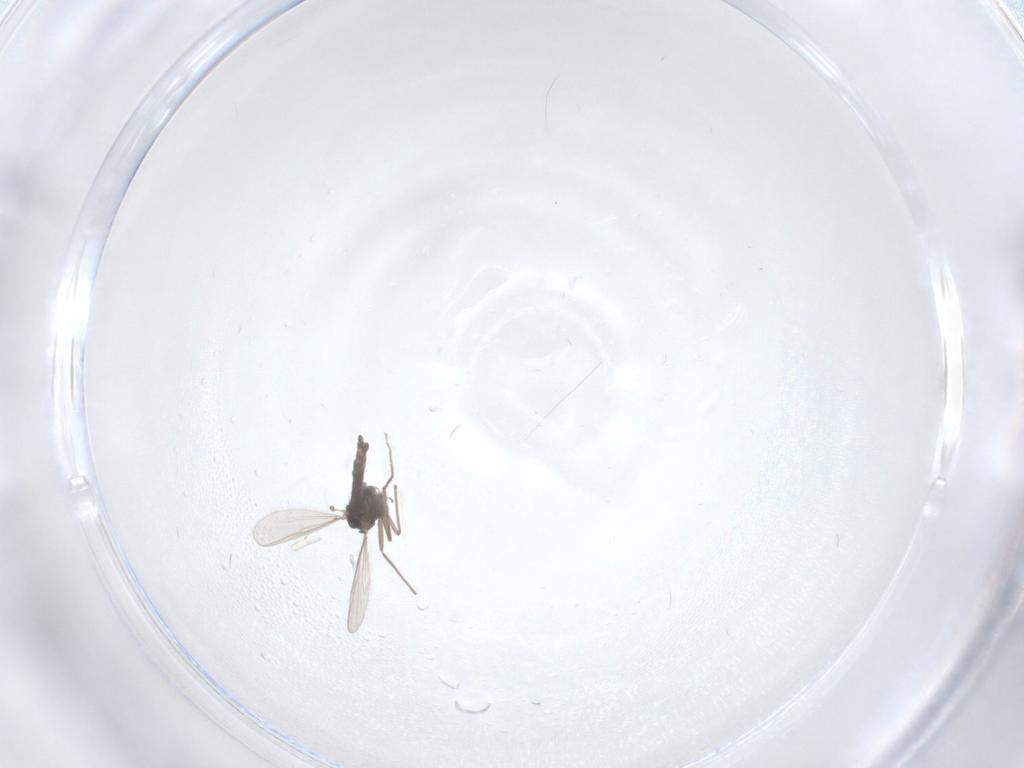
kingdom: Animalia
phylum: Arthropoda
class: Insecta
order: Diptera
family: Chironomidae
